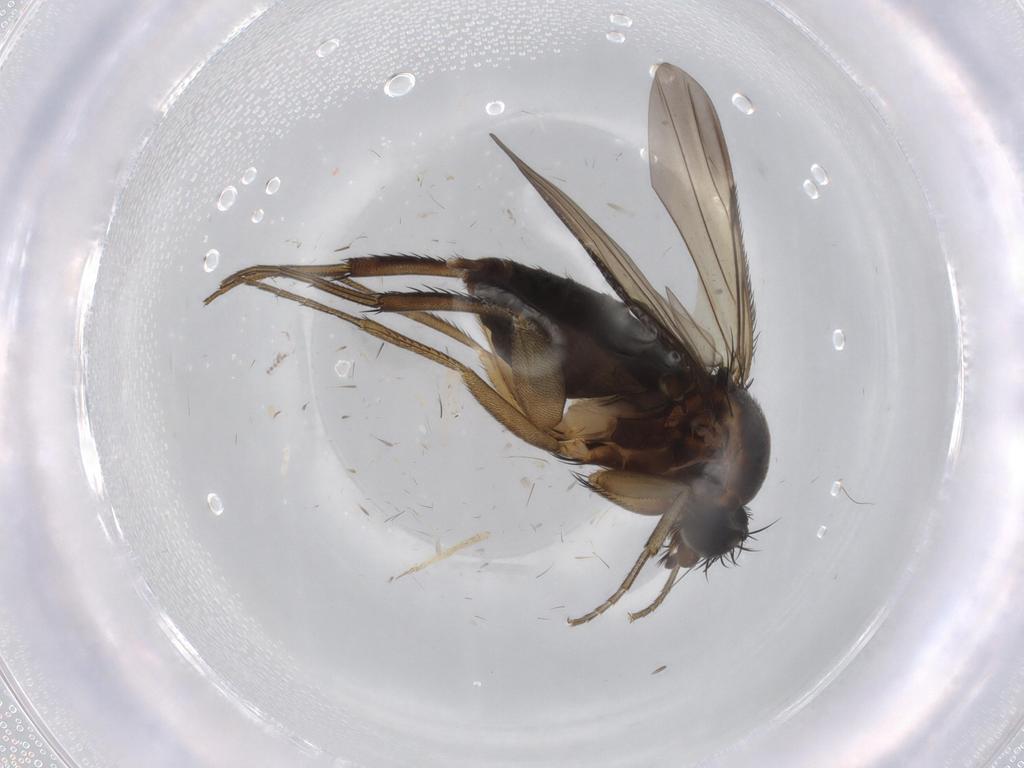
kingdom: Animalia
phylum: Arthropoda
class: Insecta
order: Diptera
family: Phoridae
